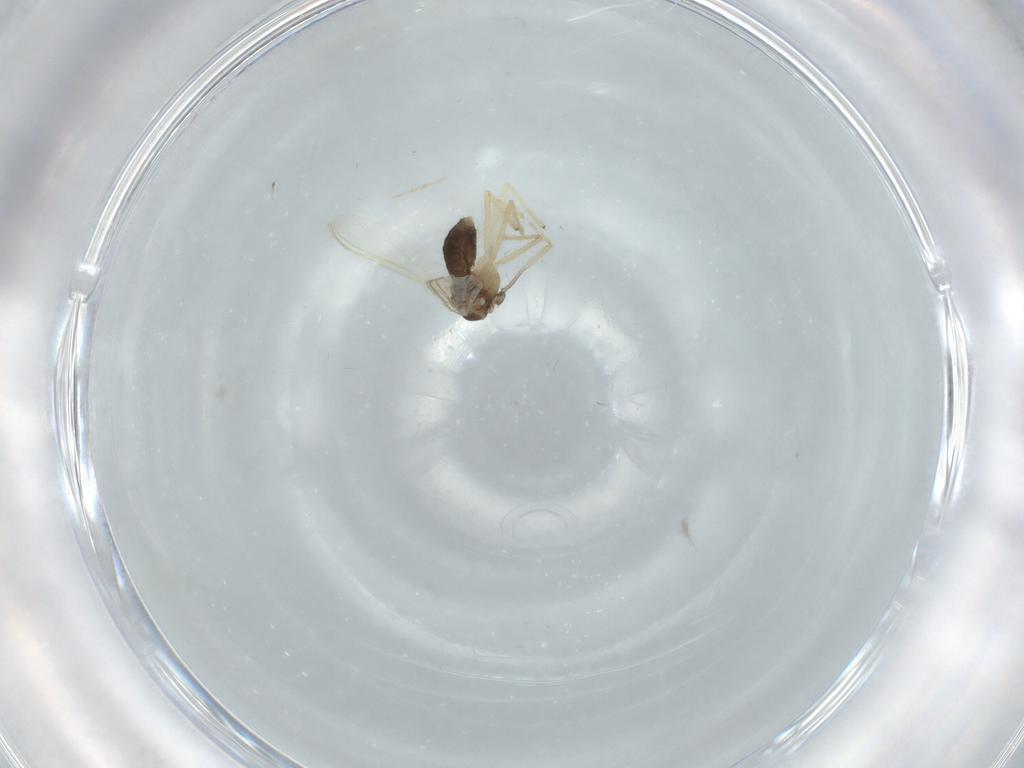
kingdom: Animalia
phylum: Arthropoda
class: Insecta
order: Diptera
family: Chironomidae
